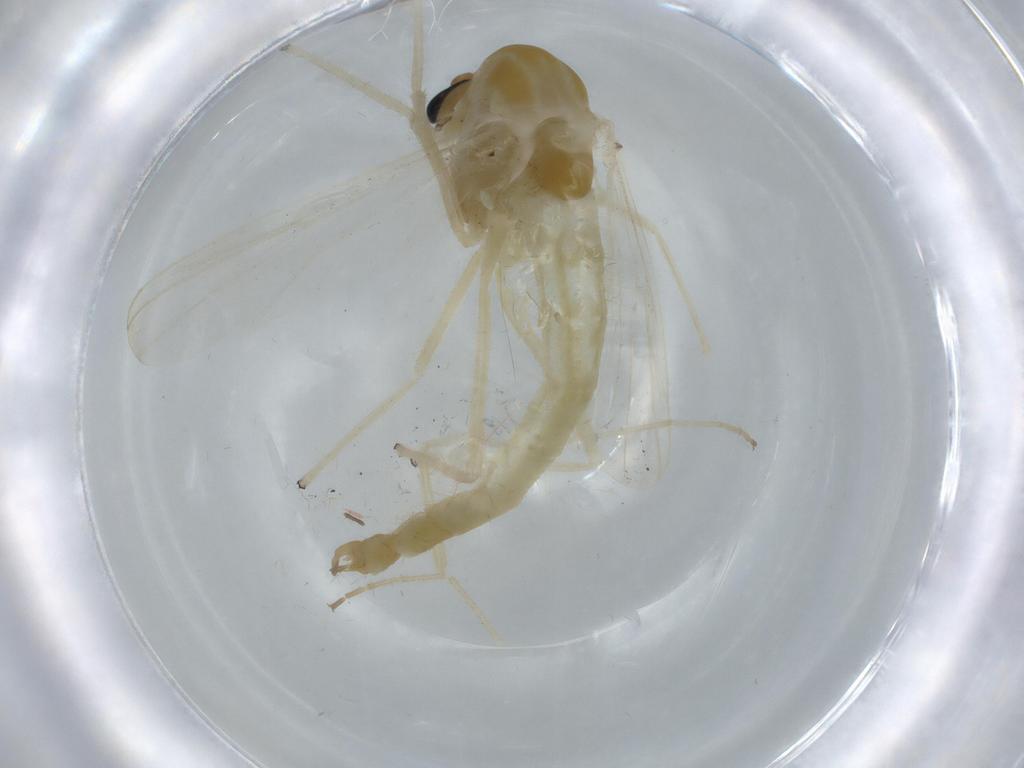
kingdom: Animalia
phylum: Arthropoda
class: Insecta
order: Diptera
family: Chironomidae
